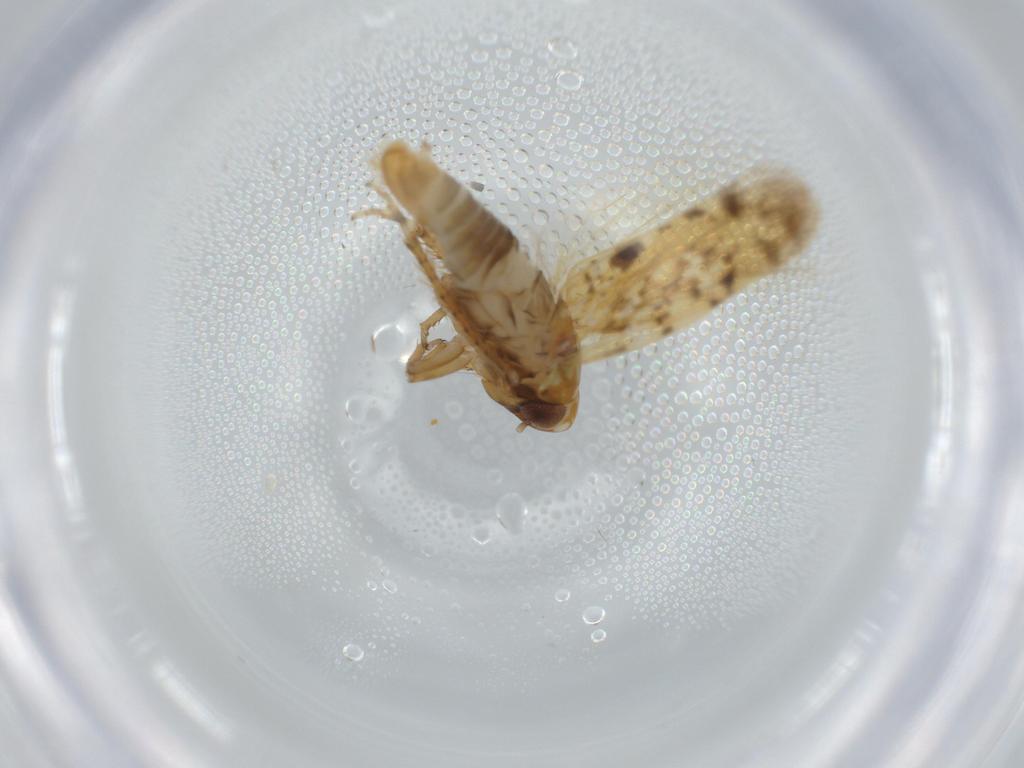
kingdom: Animalia
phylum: Arthropoda
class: Insecta
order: Hemiptera
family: Cicadellidae
